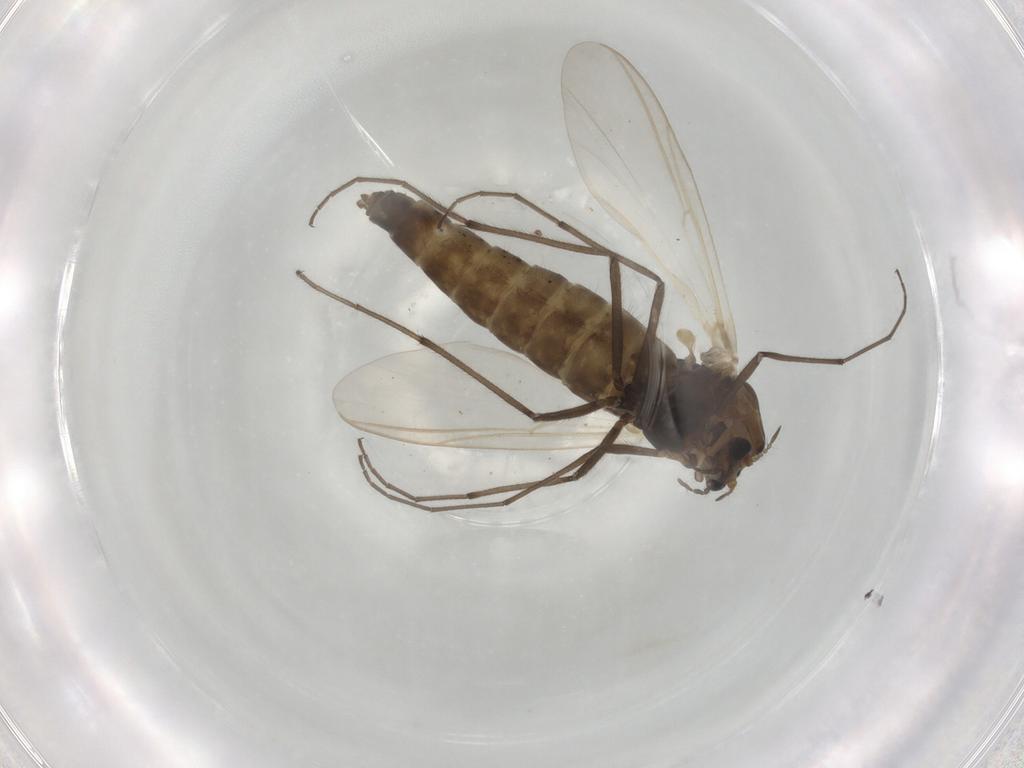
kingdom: Animalia
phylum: Arthropoda
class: Insecta
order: Diptera
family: Chironomidae
